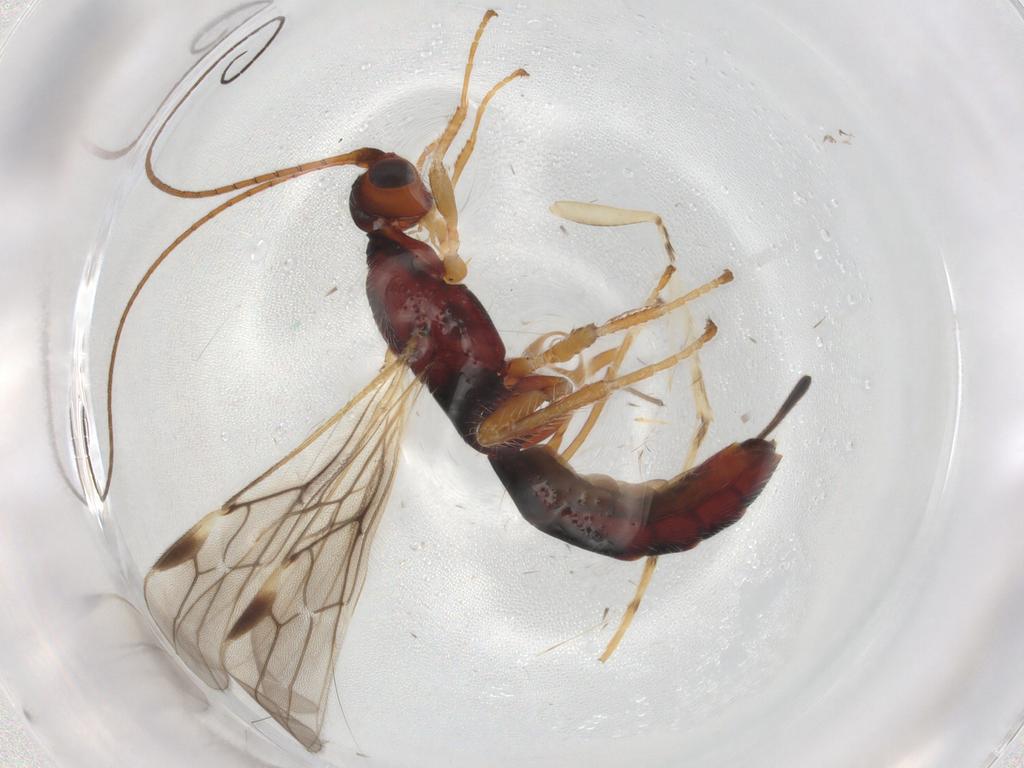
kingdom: Animalia
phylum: Arthropoda
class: Insecta
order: Hymenoptera
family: Braconidae
